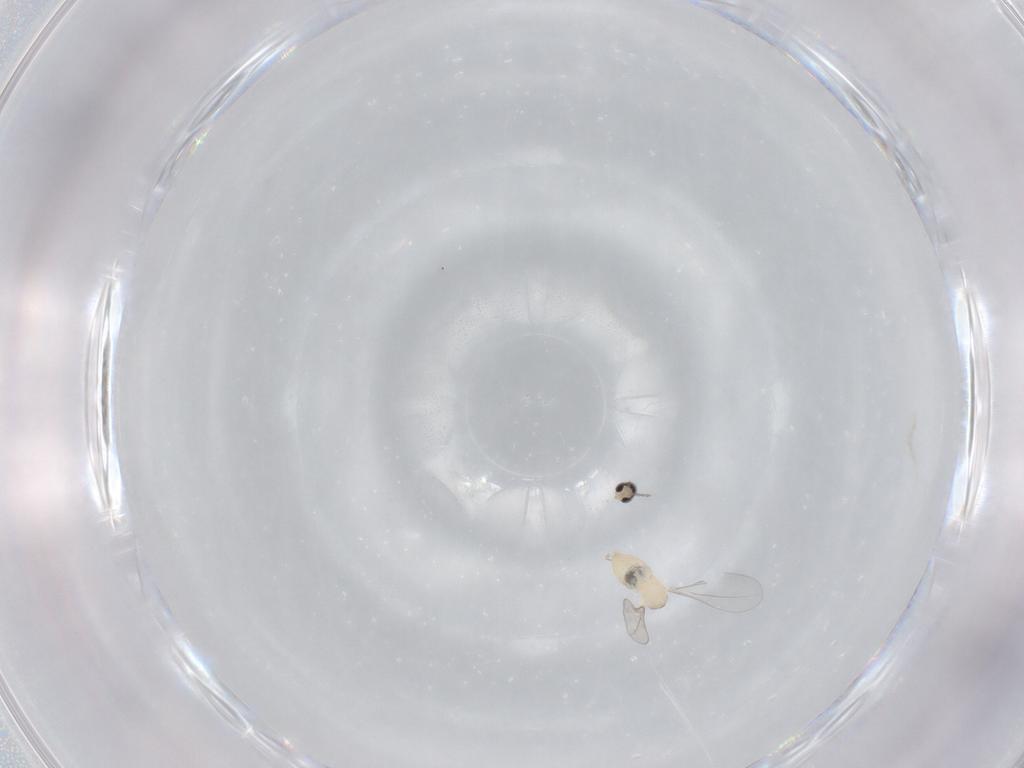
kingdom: Animalia
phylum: Arthropoda
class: Insecta
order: Diptera
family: Cecidomyiidae
